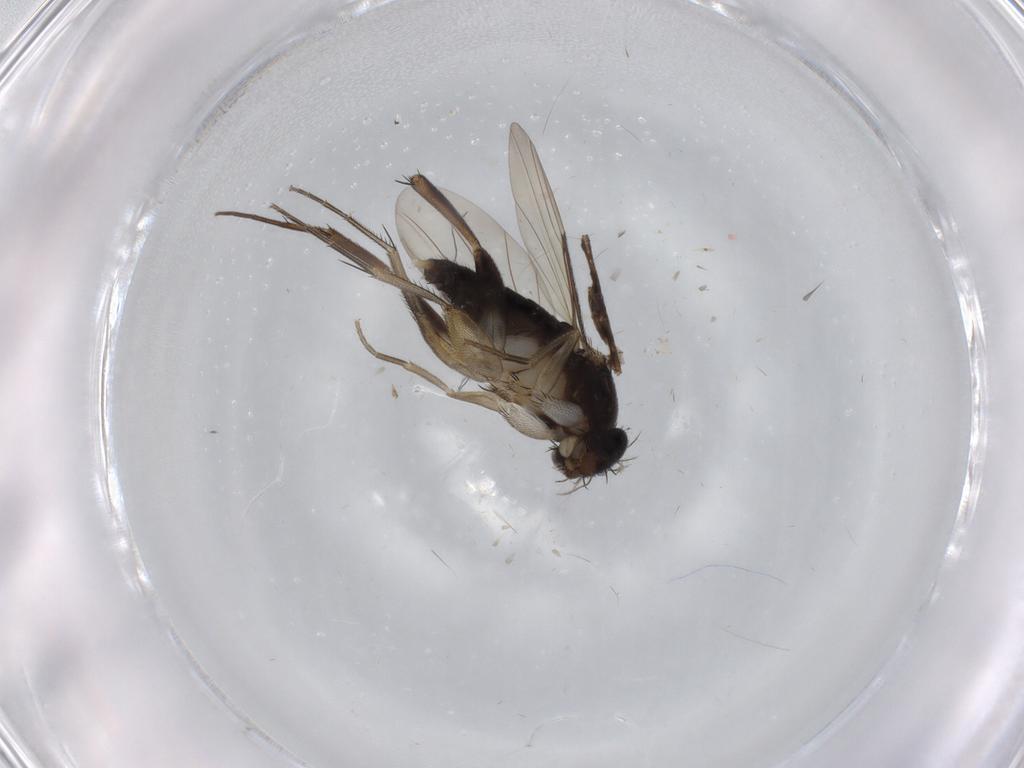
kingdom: Animalia
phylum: Arthropoda
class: Insecta
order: Diptera
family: Phoridae
